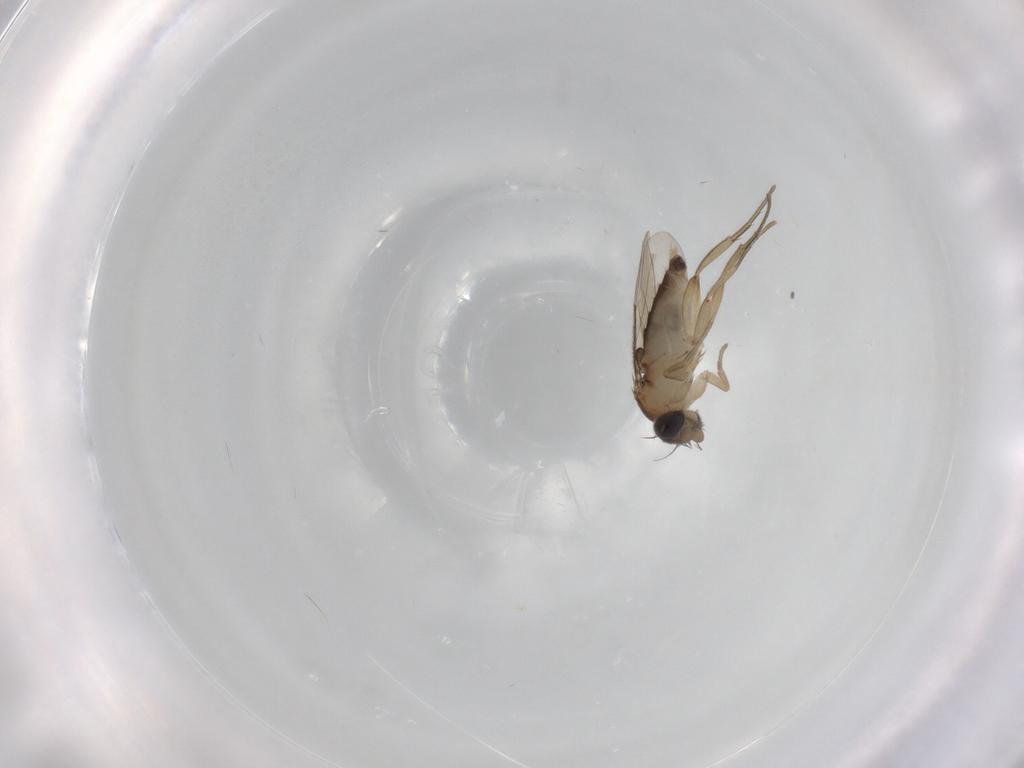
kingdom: Animalia
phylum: Arthropoda
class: Insecta
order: Diptera
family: Phoridae
